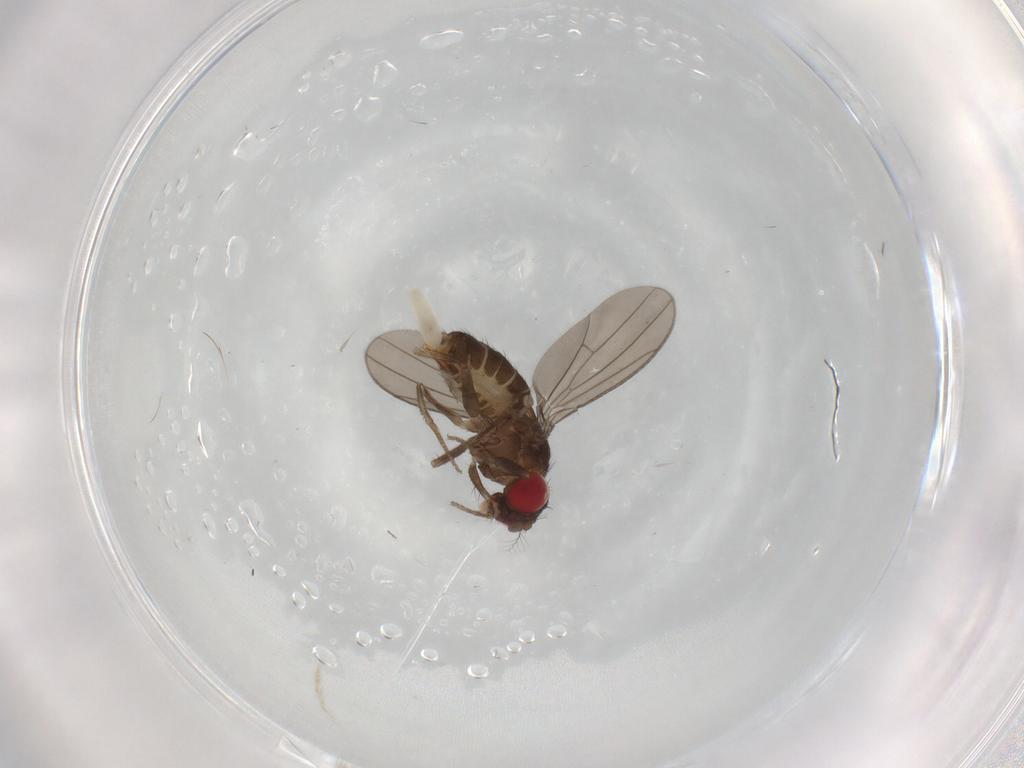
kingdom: Animalia
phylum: Arthropoda
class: Insecta
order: Diptera
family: Chironomidae
